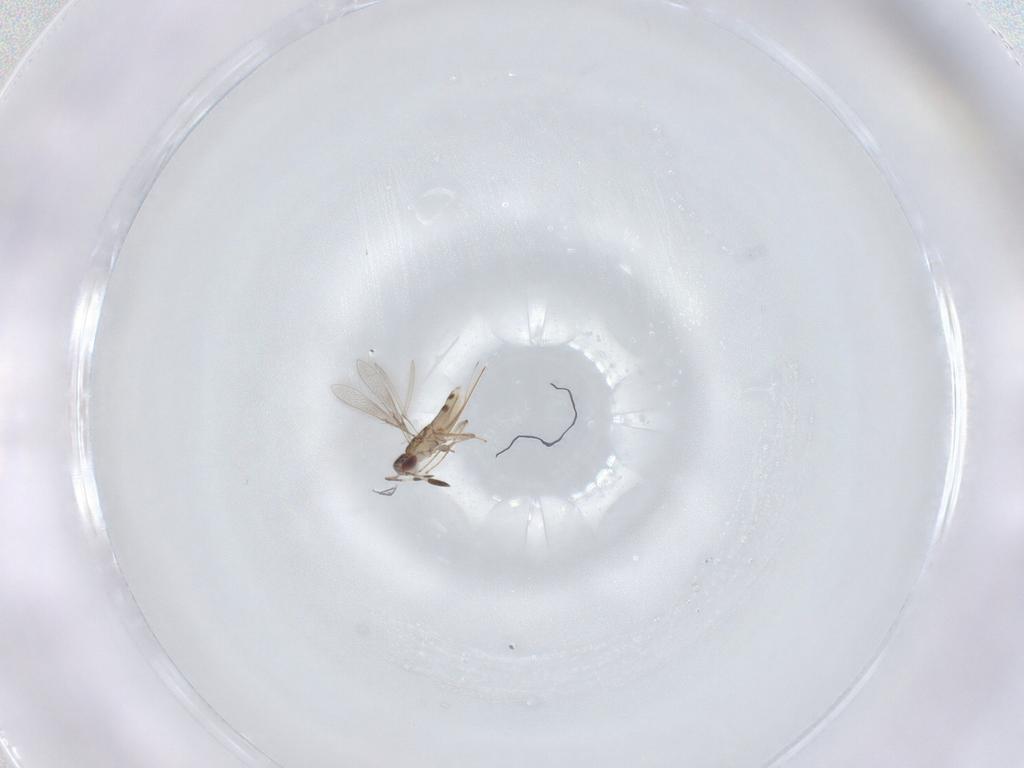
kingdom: Animalia
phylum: Arthropoda
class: Insecta
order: Hymenoptera
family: Mymaridae
